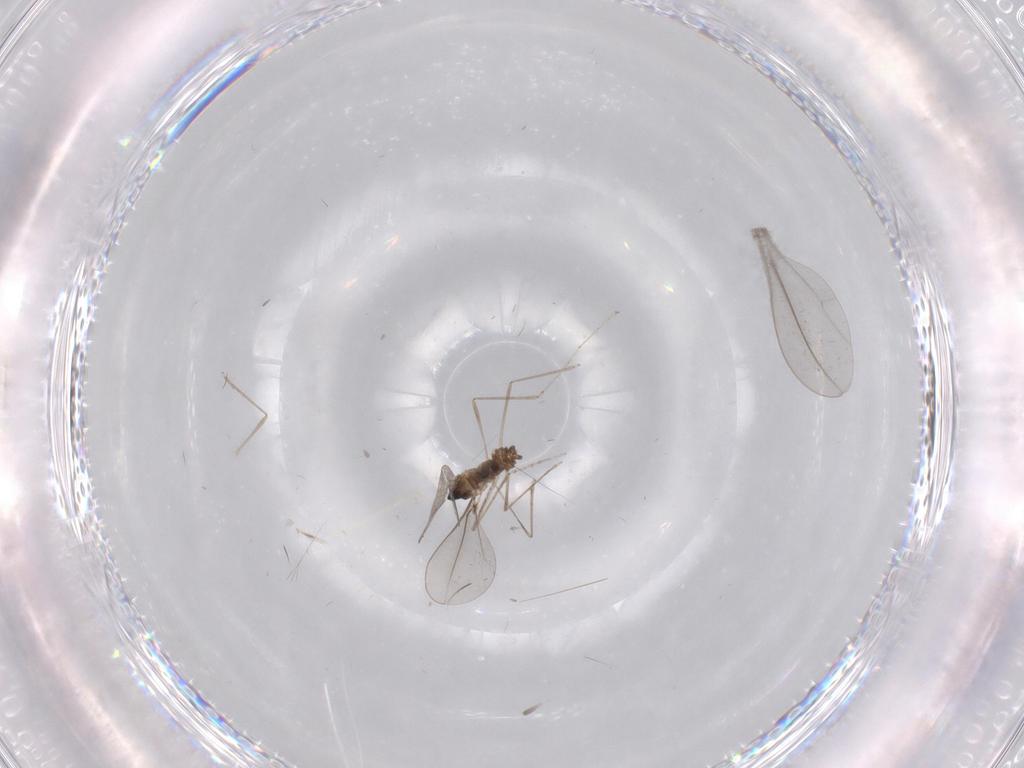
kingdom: Animalia
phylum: Arthropoda
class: Insecta
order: Diptera
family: Cecidomyiidae
